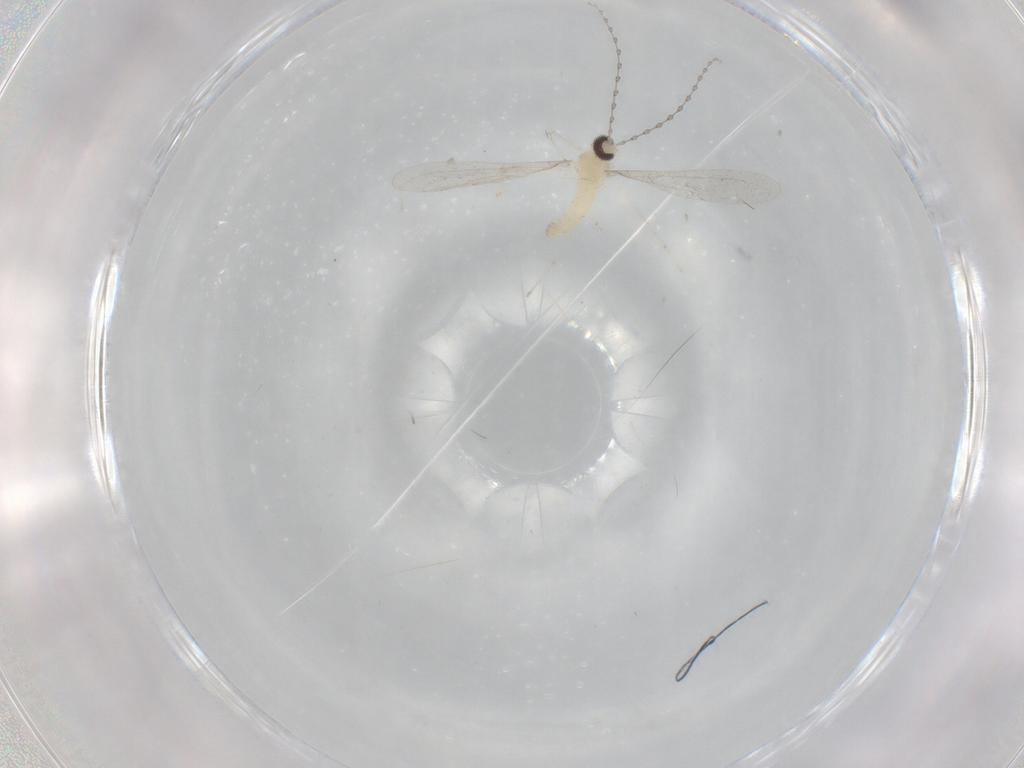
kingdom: Animalia
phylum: Arthropoda
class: Insecta
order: Diptera
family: Cecidomyiidae
